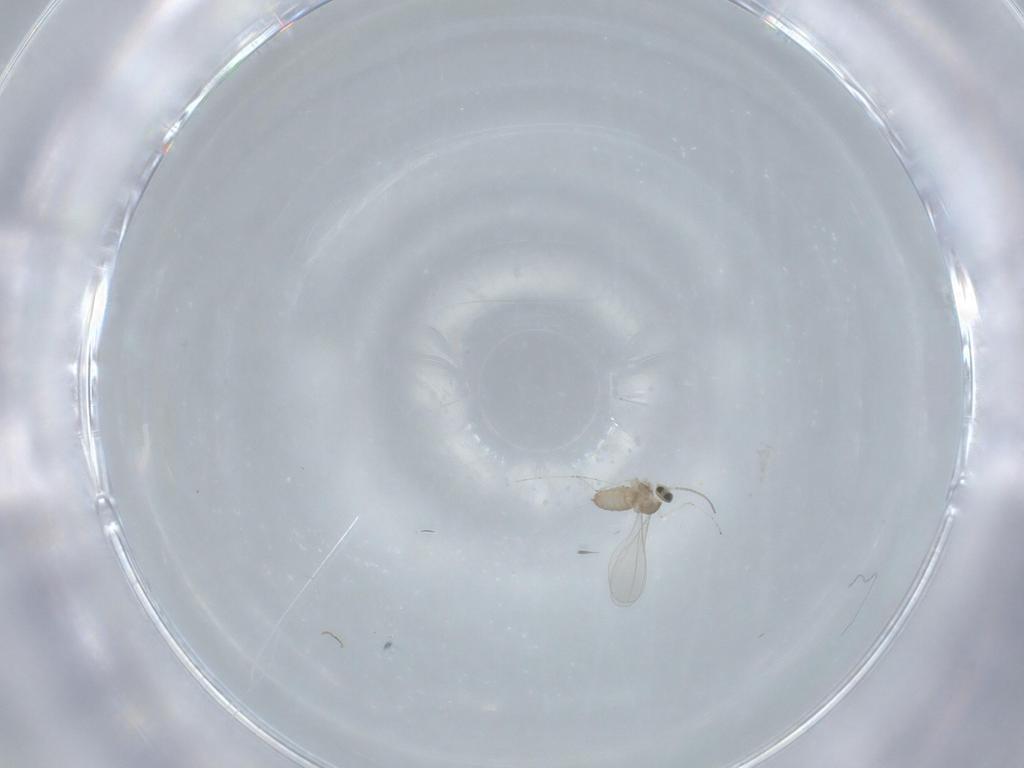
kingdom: Animalia
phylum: Arthropoda
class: Insecta
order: Diptera
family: Cecidomyiidae
